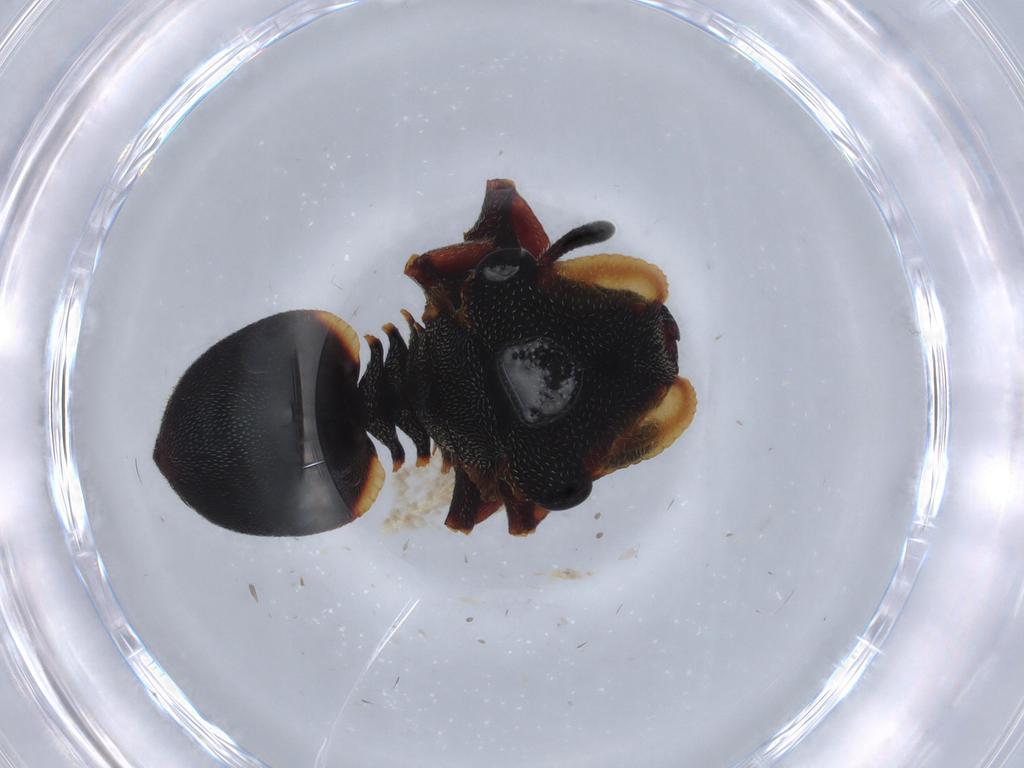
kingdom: Animalia
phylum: Arthropoda
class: Insecta
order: Hymenoptera
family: Formicidae
